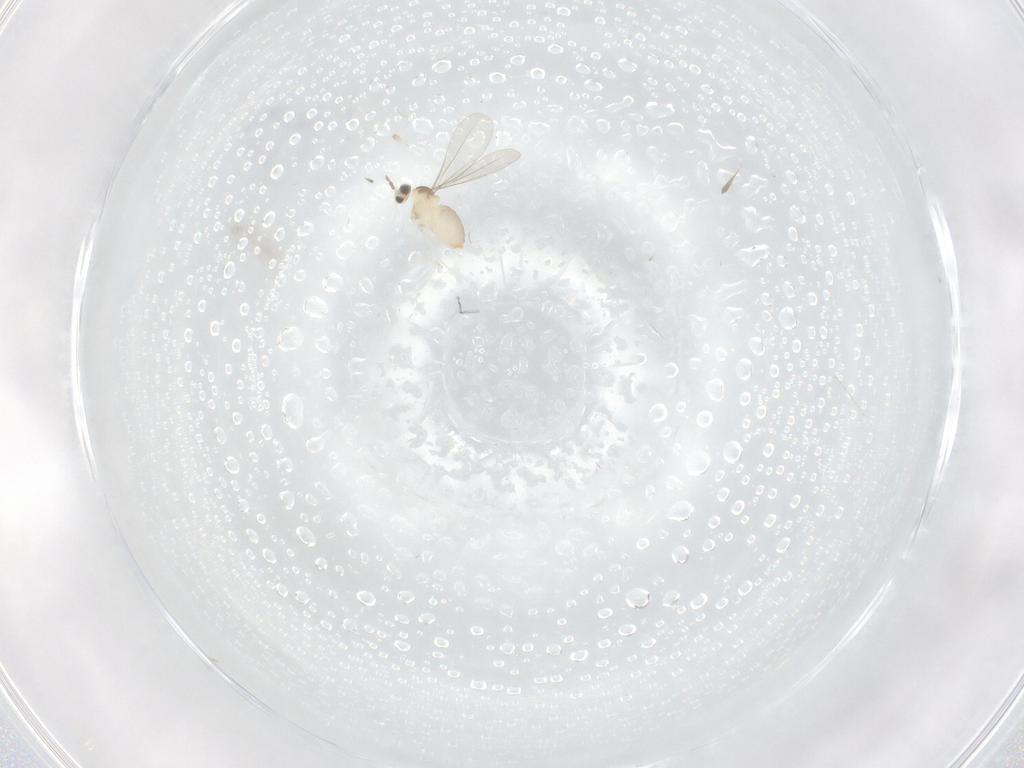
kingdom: Animalia
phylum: Arthropoda
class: Insecta
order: Diptera
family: Cecidomyiidae
